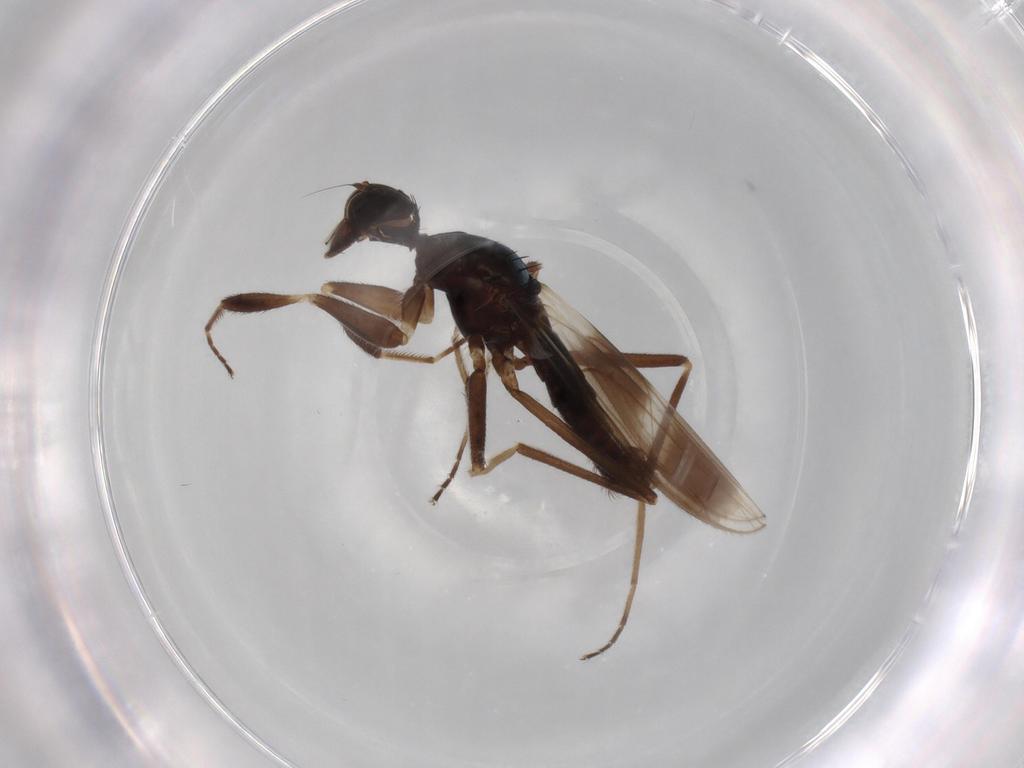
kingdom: Animalia
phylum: Arthropoda
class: Insecta
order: Diptera
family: Hybotidae
